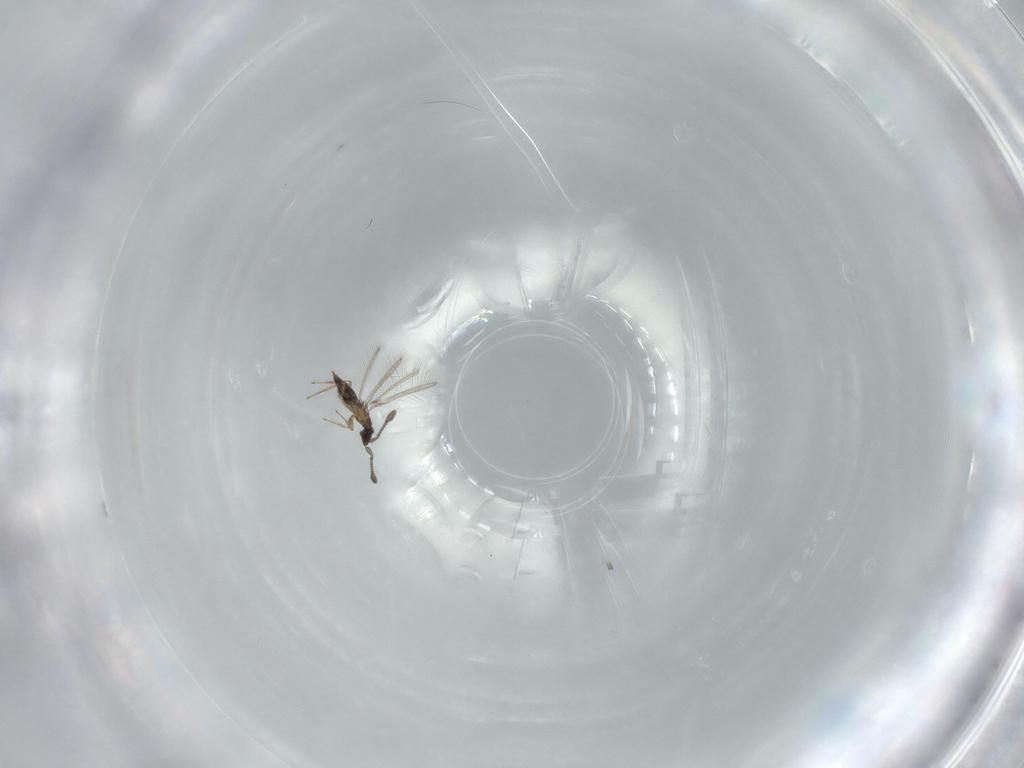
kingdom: Animalia
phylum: Arthropoda
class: Insecta
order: Hymenoptera
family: Mymaridae
